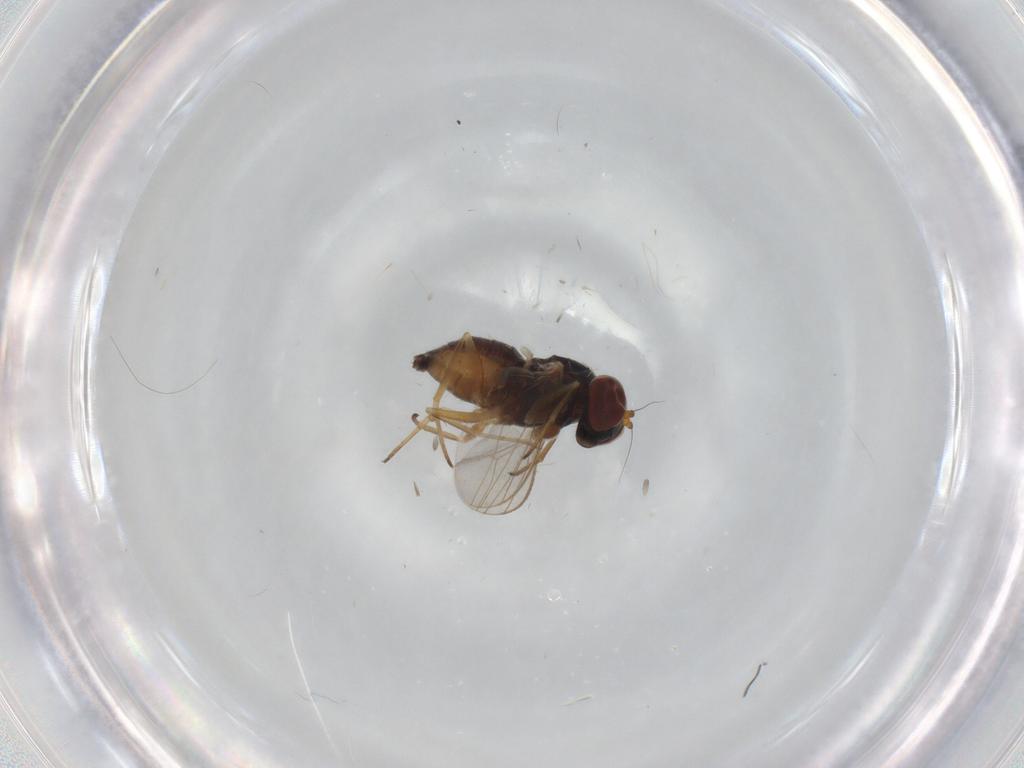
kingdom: Animalia
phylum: Arthropoda
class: Insecta
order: Diptera
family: Dolichopodidae
